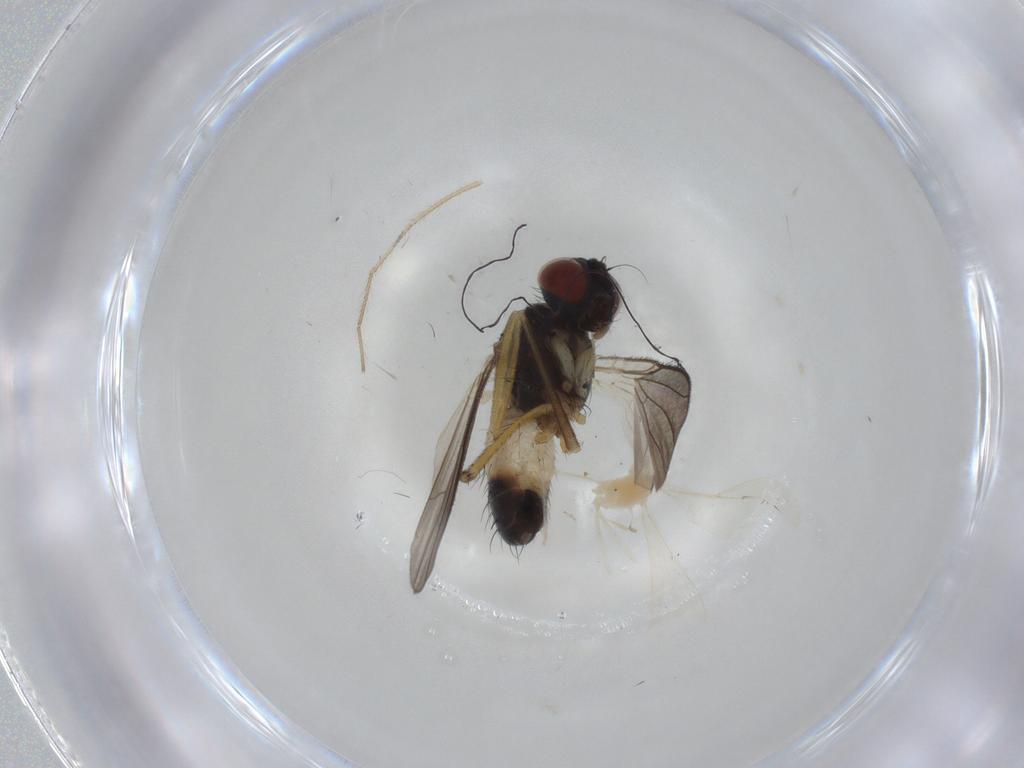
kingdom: Animalia
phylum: Arthropoda
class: Insecta
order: Diptera
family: Muscidae
